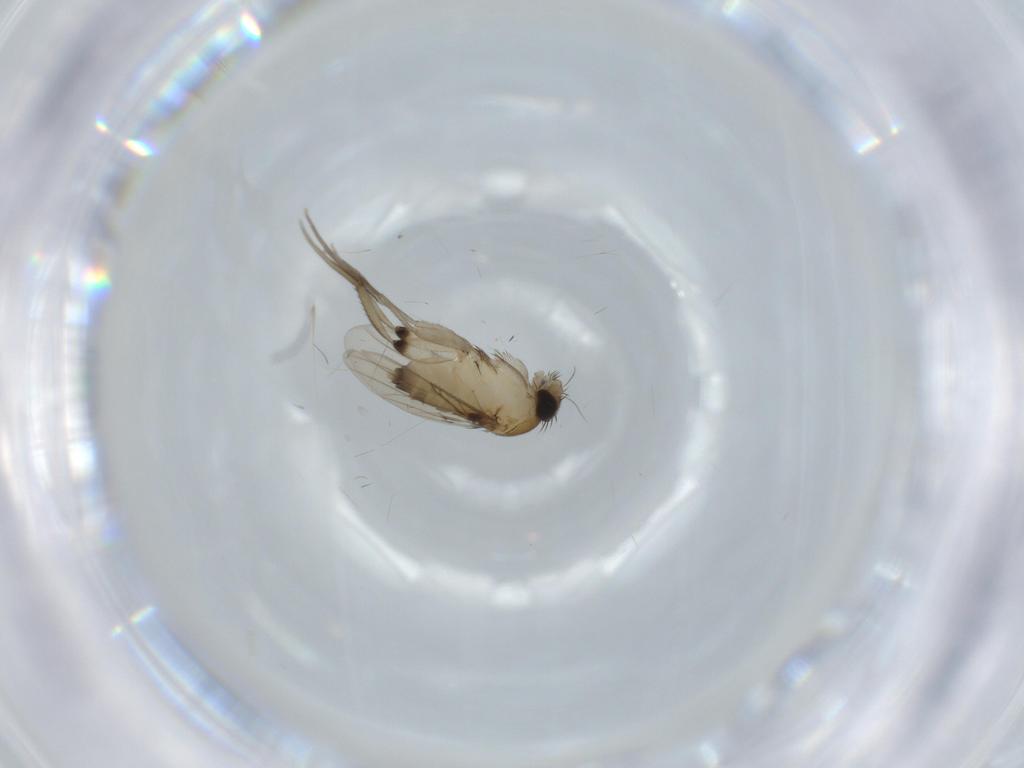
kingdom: Animalia
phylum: Arthropoda
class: Insecta
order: Diptera
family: Phoridae
